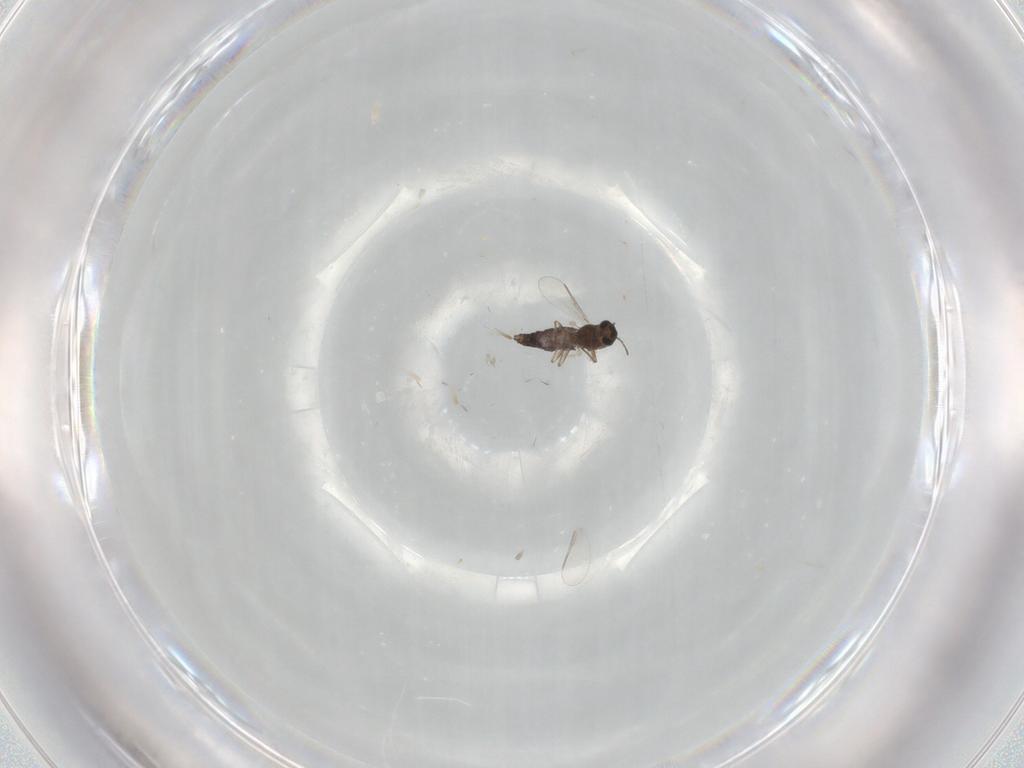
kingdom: Animalia
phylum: Arthropoda
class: Insecta
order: Diptera
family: Chironomidae
